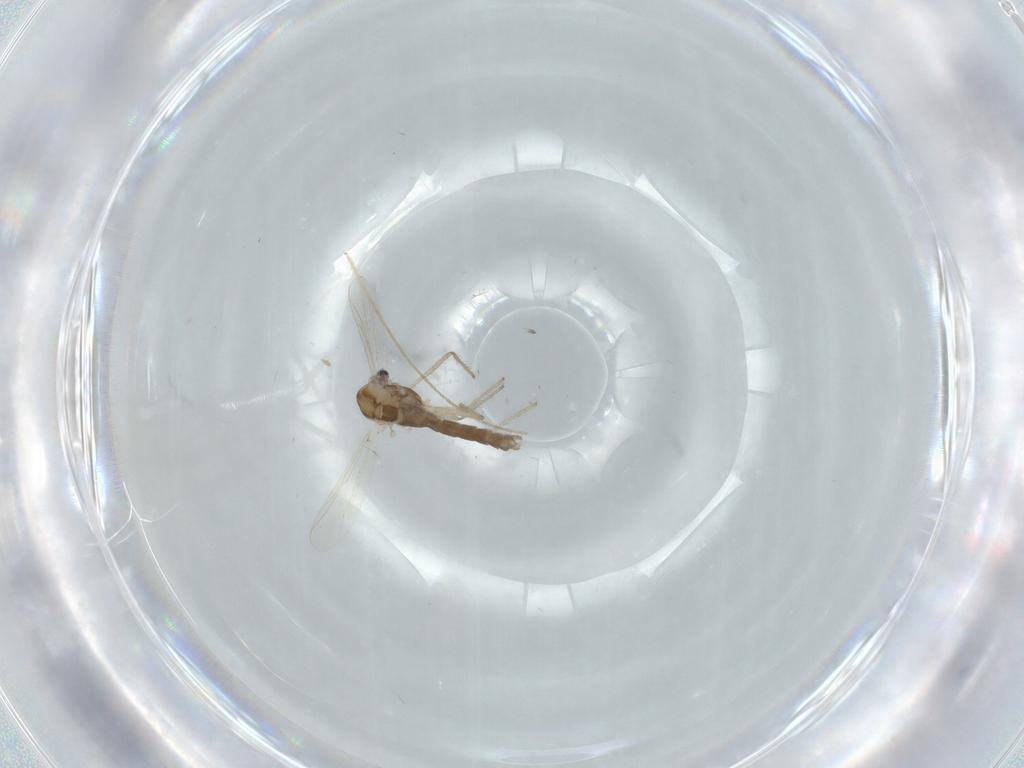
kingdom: Animalia
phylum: Arthropoda
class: Insecta
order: Diptera
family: Chironomidae
